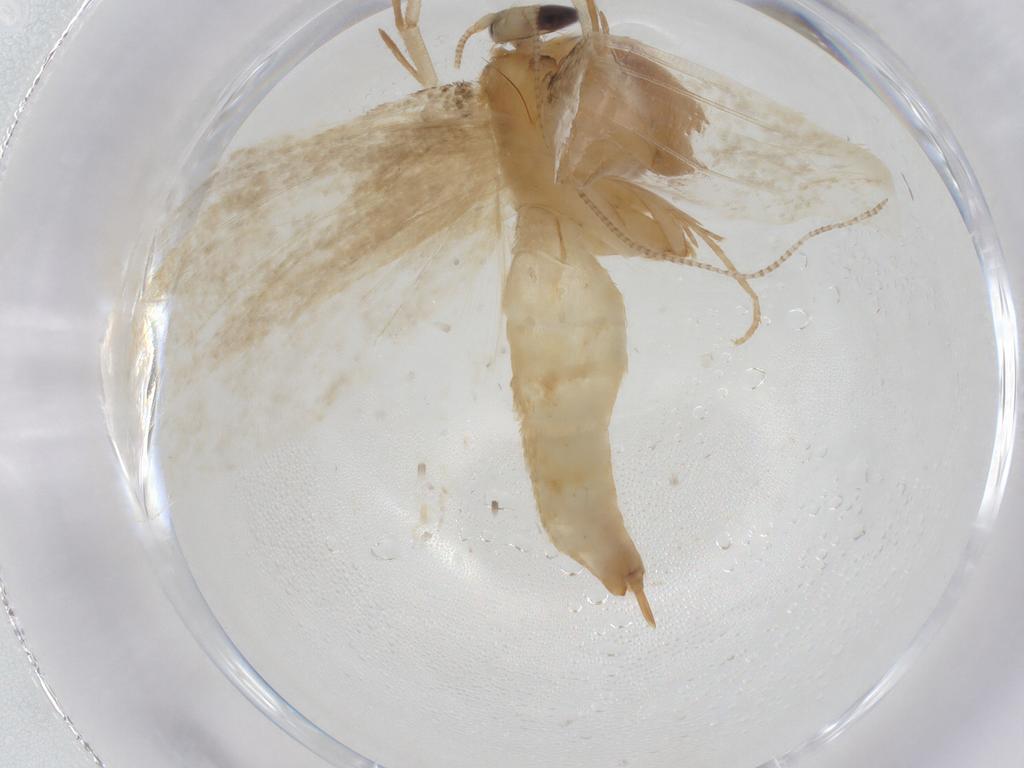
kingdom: Animalia
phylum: Arthropoda
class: Insecta
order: Lepidoptera
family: Tineidae
